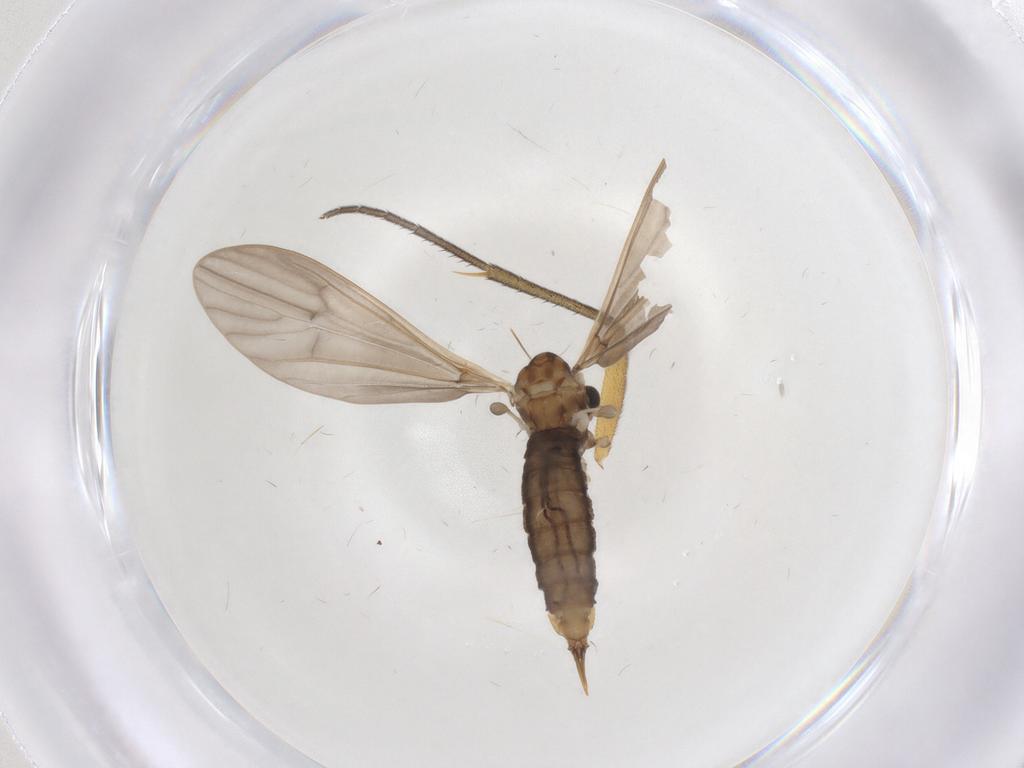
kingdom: Animalia
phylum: Arthropoda
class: Insecta
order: Diptera
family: Limoniidae
